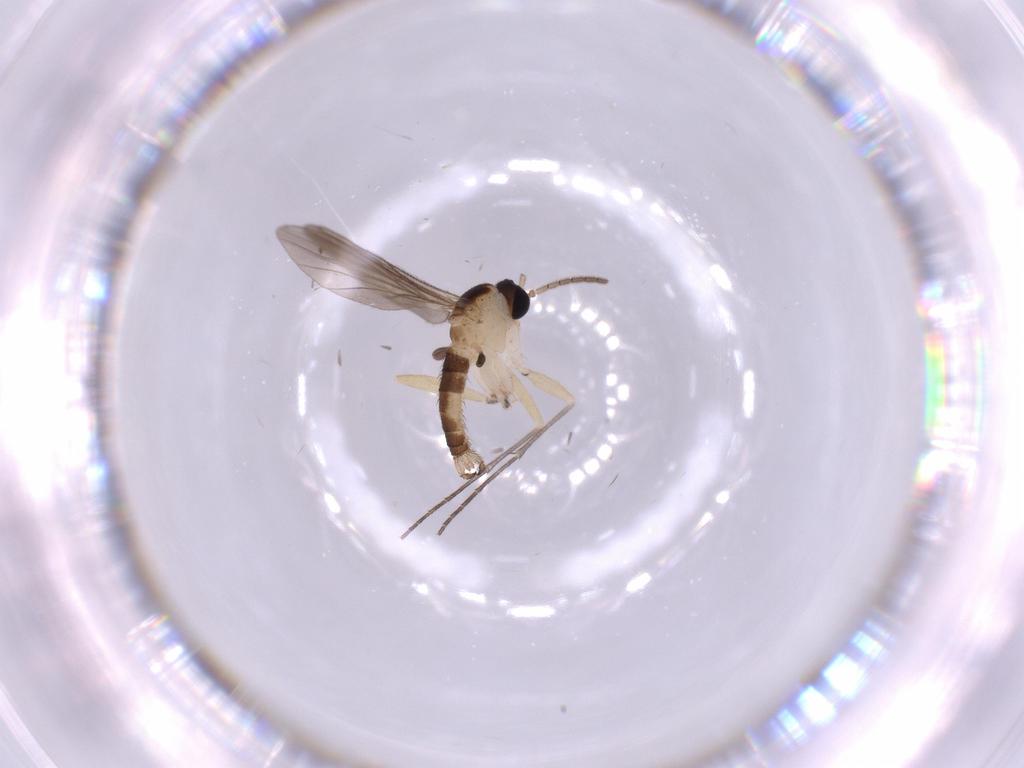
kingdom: Animalia
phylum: Arthropoda
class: Insecta
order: Diptera
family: Sciaridae
